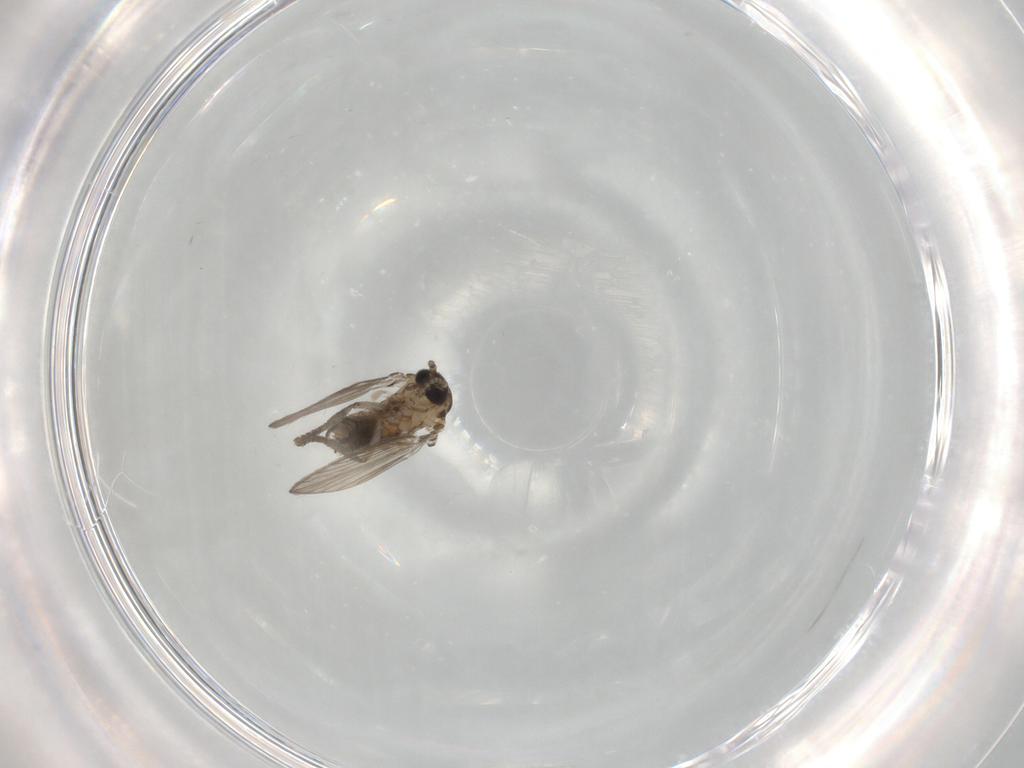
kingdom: Animalia
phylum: Arthropoda
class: Insecta
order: Diptera
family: Psychodidae
